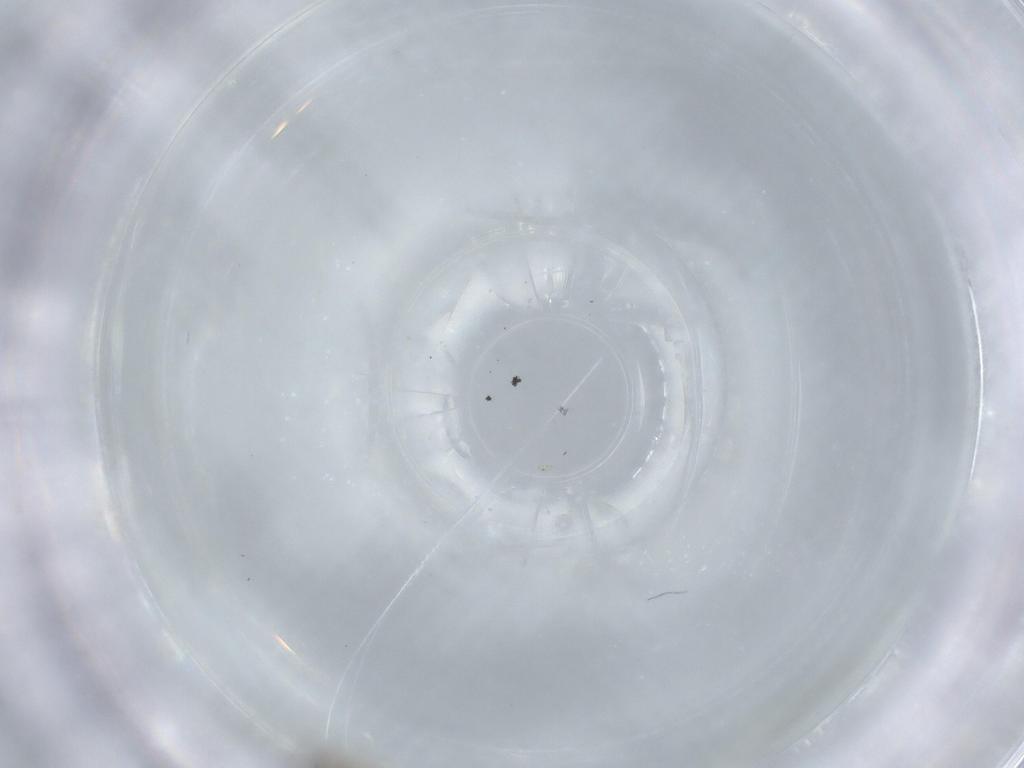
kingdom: Animalia
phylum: Arthropoda
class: Insecta
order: Diptera
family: Cecidomyiidae
